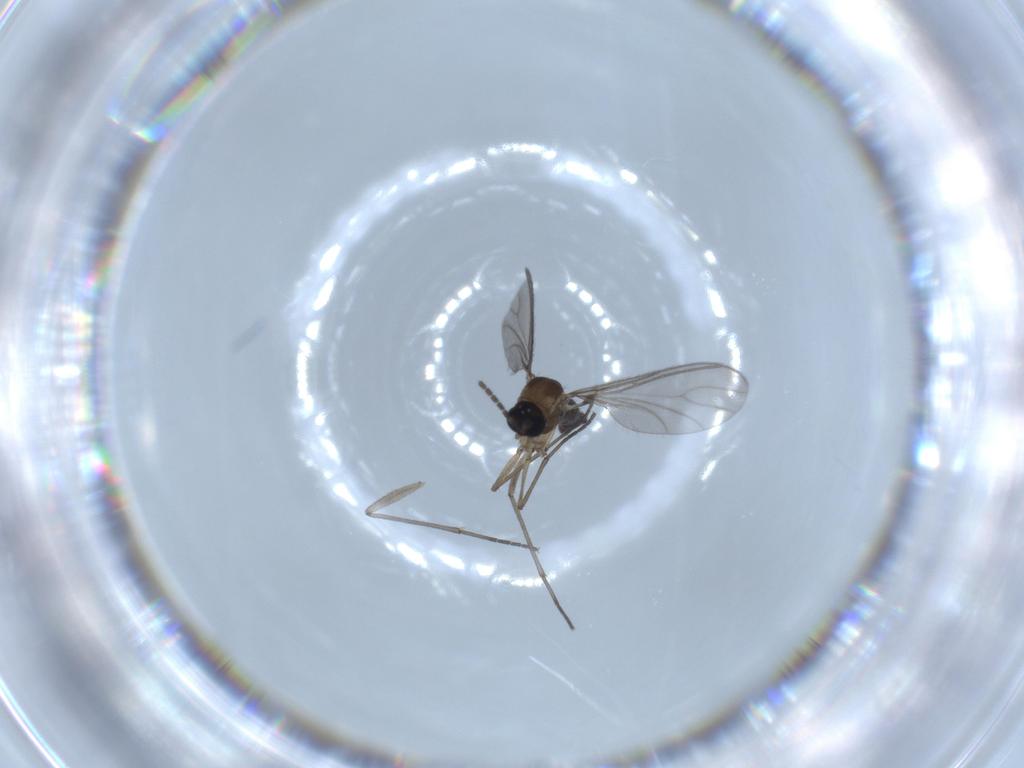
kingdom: Animalia
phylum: Arthropoda
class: Insecta
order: Diptera
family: Sciaridae
